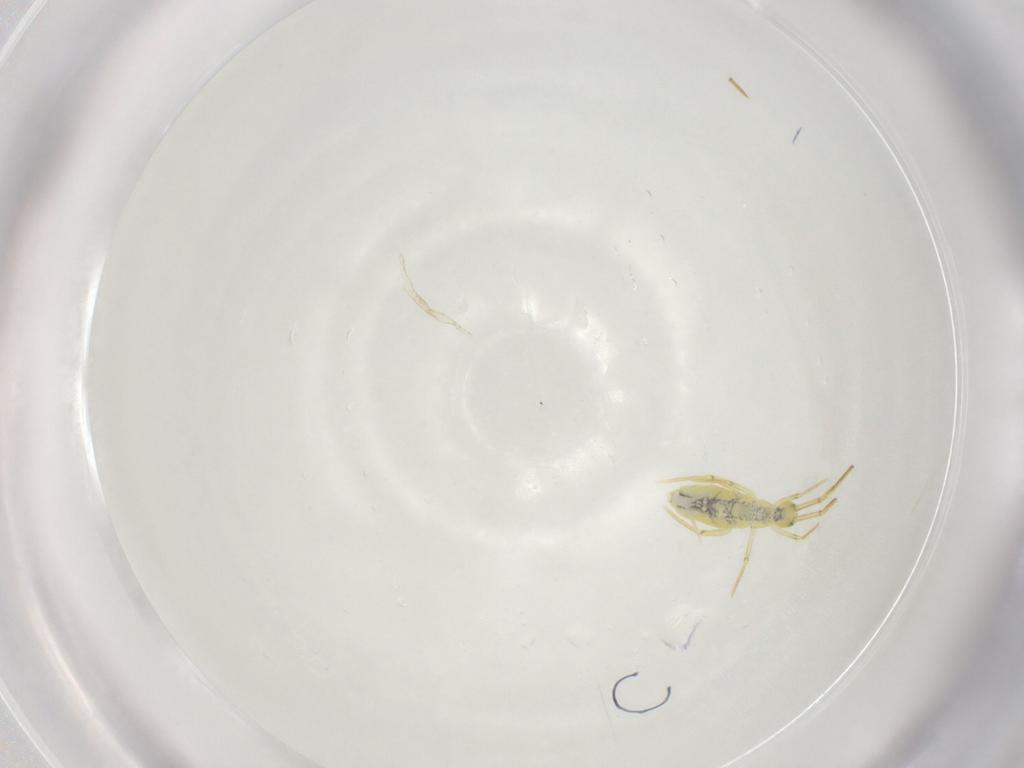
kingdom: Animalia
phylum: Arthropoda
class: Collembola
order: Entomobryomorpha
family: Entomobryidae
